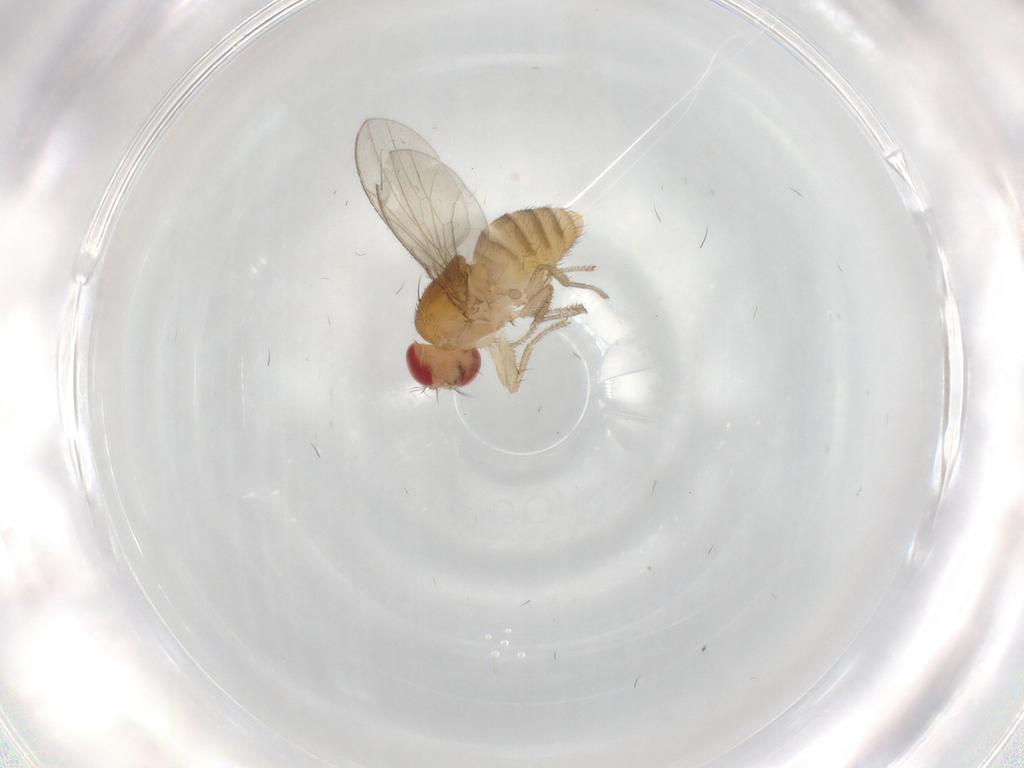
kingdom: Animalia
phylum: Arthropoda
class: Insecta
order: Diptera
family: Drosophilidae
